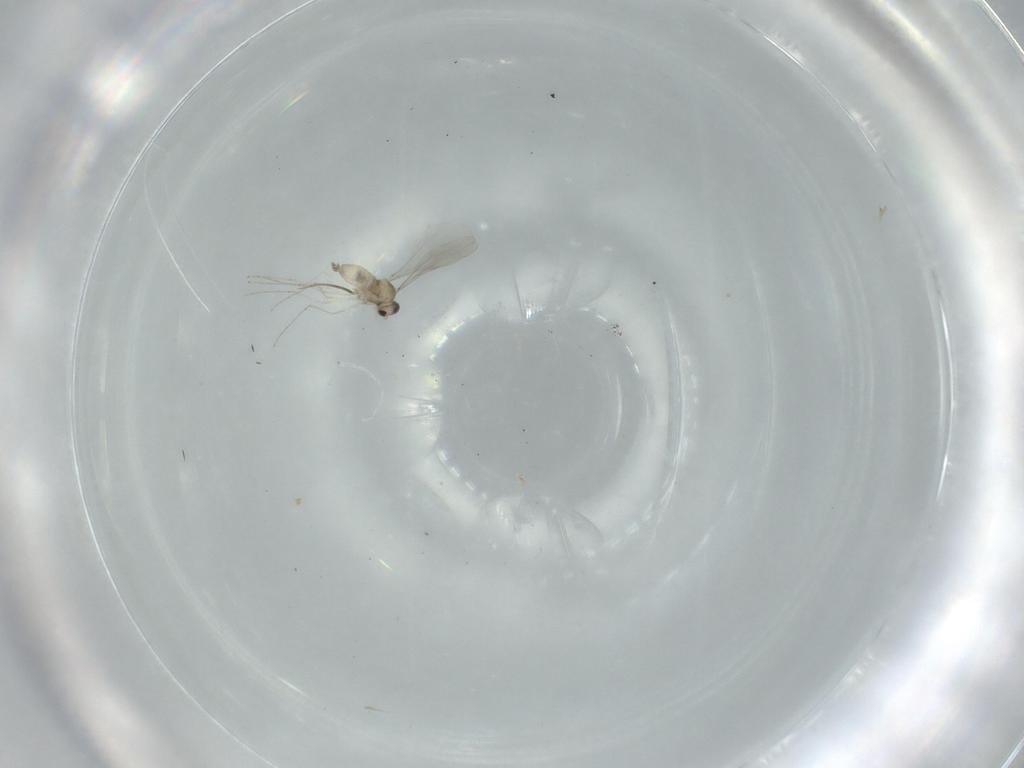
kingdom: Animalia
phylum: Arthropoda
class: Insecta
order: Diptera
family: Cecidomyiidae
